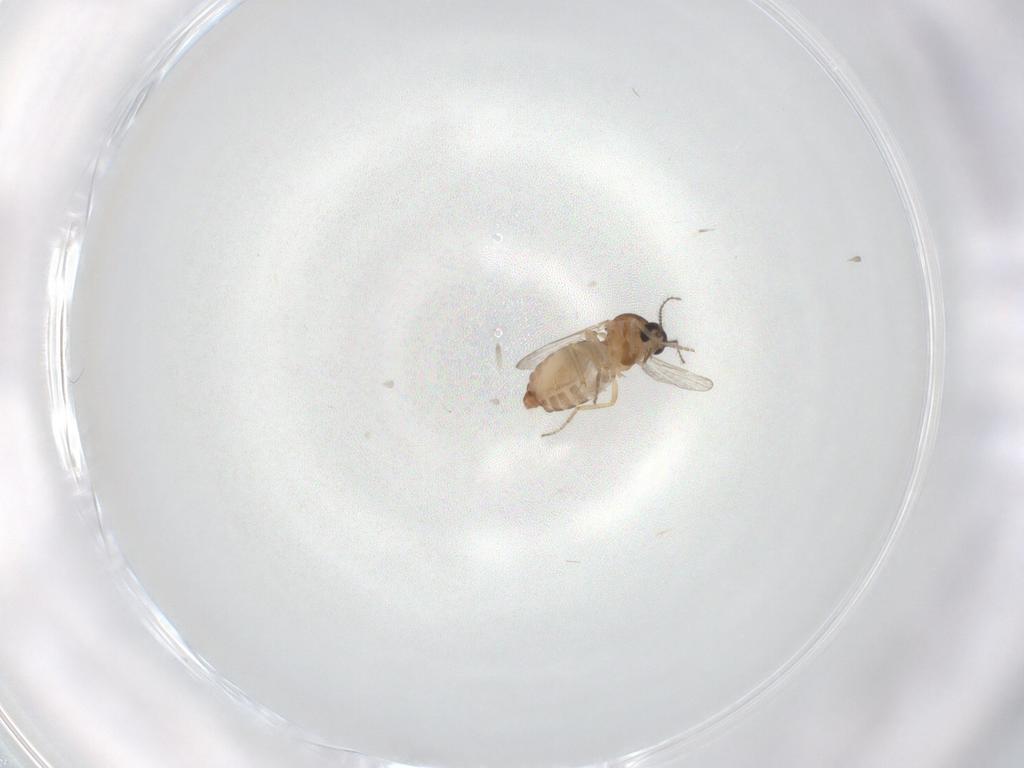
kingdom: Animalia
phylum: Arthropoda
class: Insecta
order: Diptera
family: Ceratopogonidae
